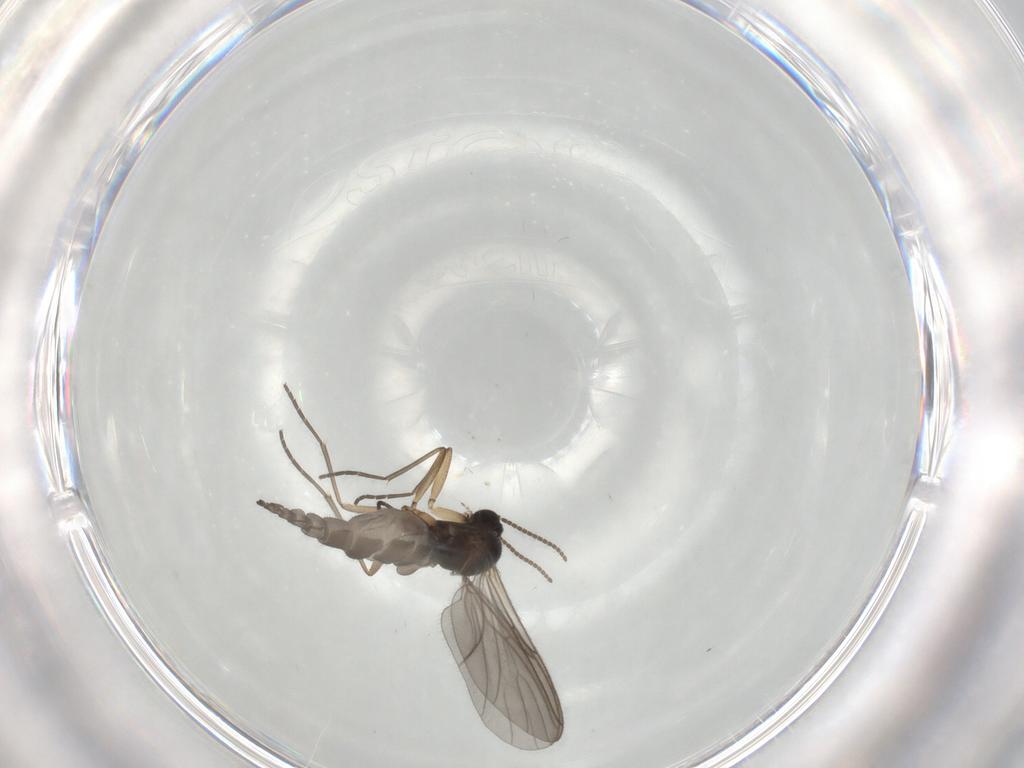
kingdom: Animalia
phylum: Arthropoda
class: Insecta
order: Diptera
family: Sciaridae
